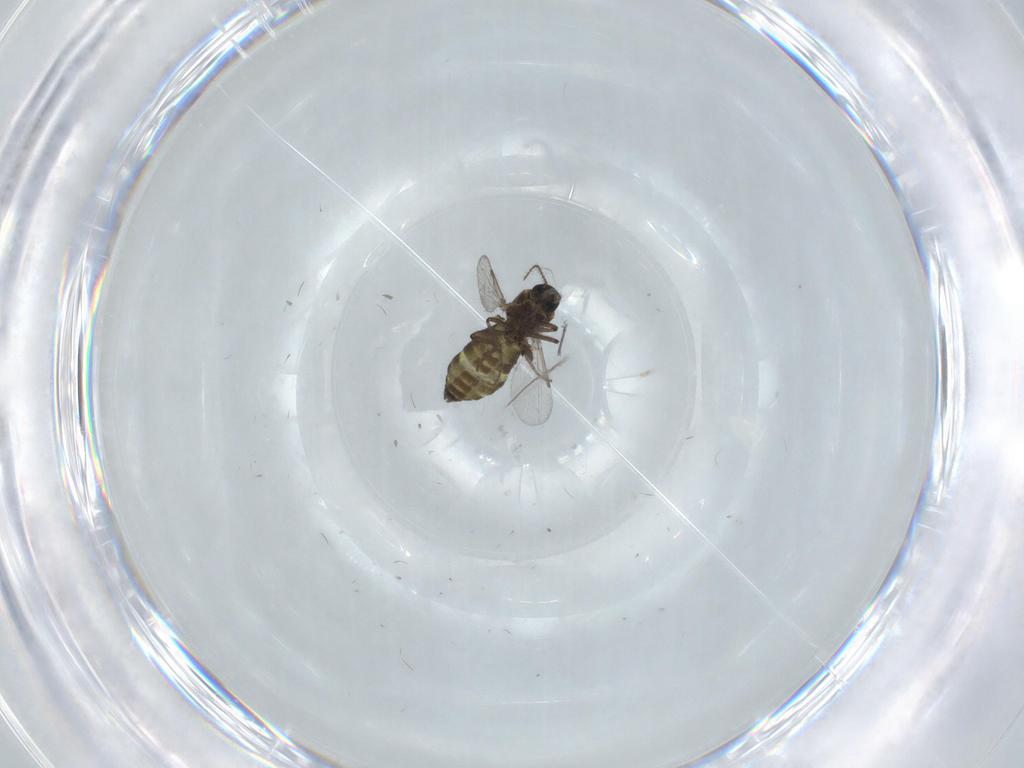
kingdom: Animalia
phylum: Arthropoda
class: Insecta
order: Diptera
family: Ceratopogonidae
